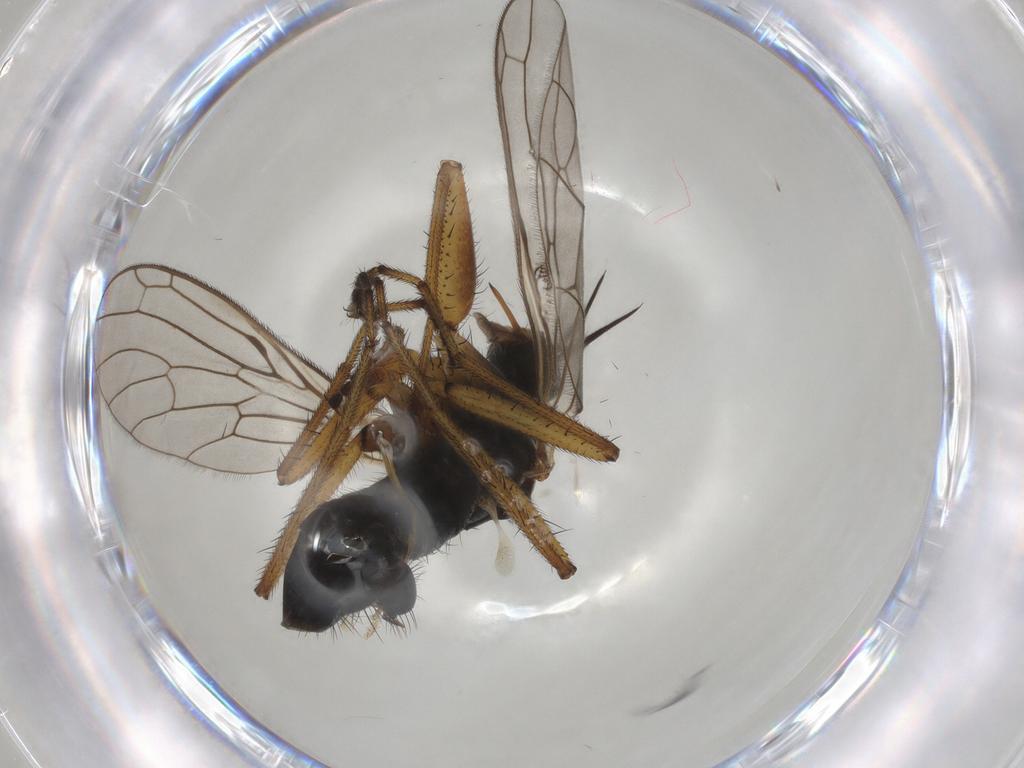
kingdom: Animalia
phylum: Arthropoda
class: Insecta
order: Diptera
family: Empididae
